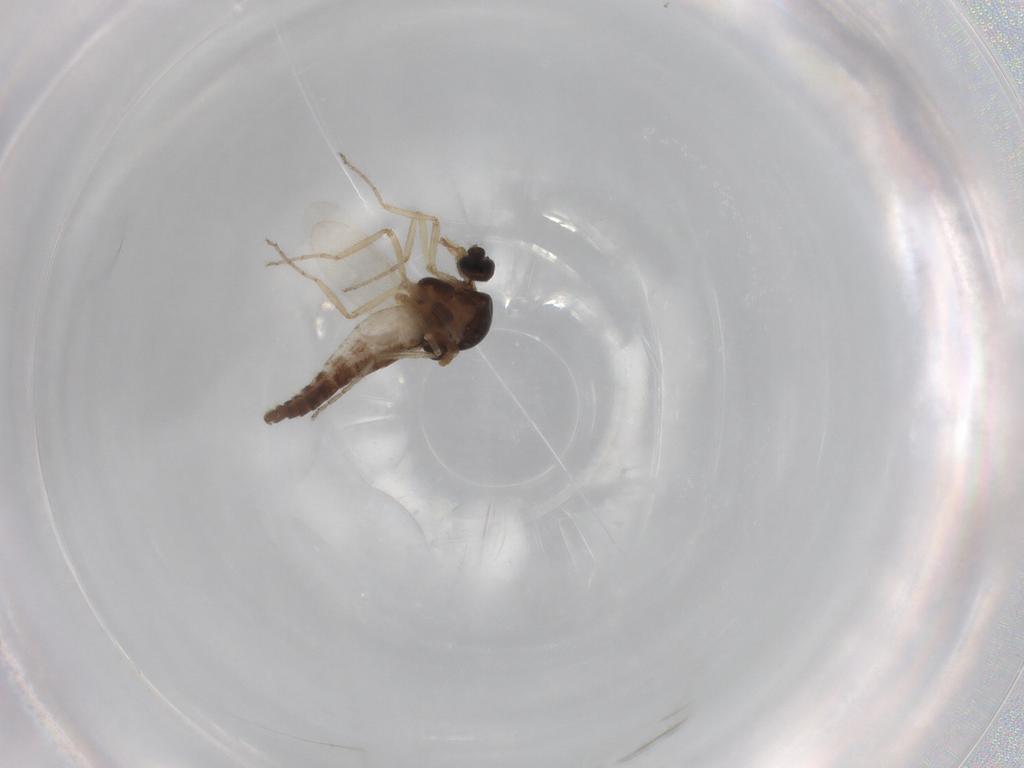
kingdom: Animalia
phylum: Arthropoda
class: Insecta
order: Diptera
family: Ceratopogonidae
